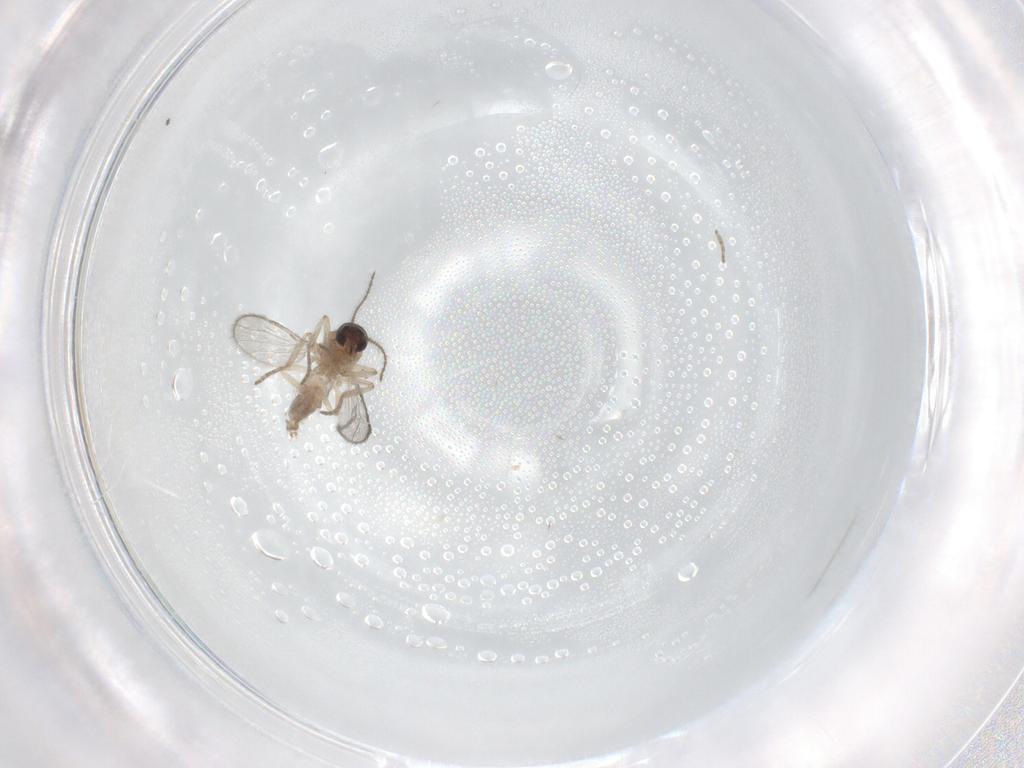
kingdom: Animalia
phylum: Arthropoda
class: Insecta
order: Diptera
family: Ceratopogonidae
